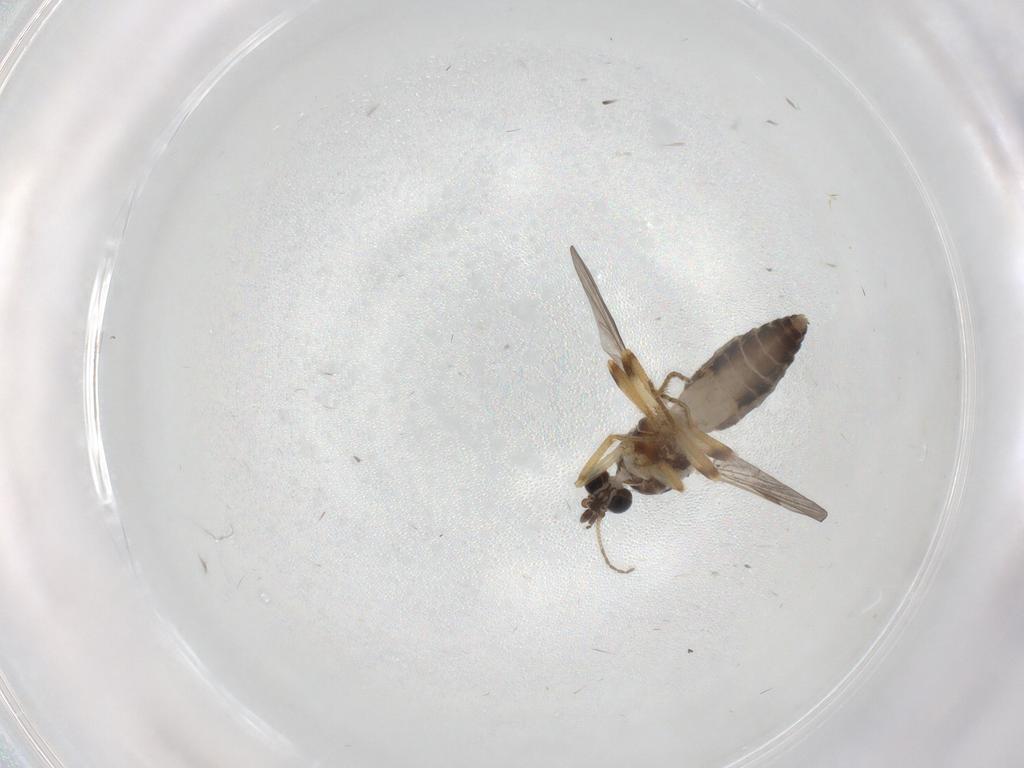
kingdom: Animalia
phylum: Arthropoda
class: Insecta
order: Diptera
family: Ceratopogonidae
